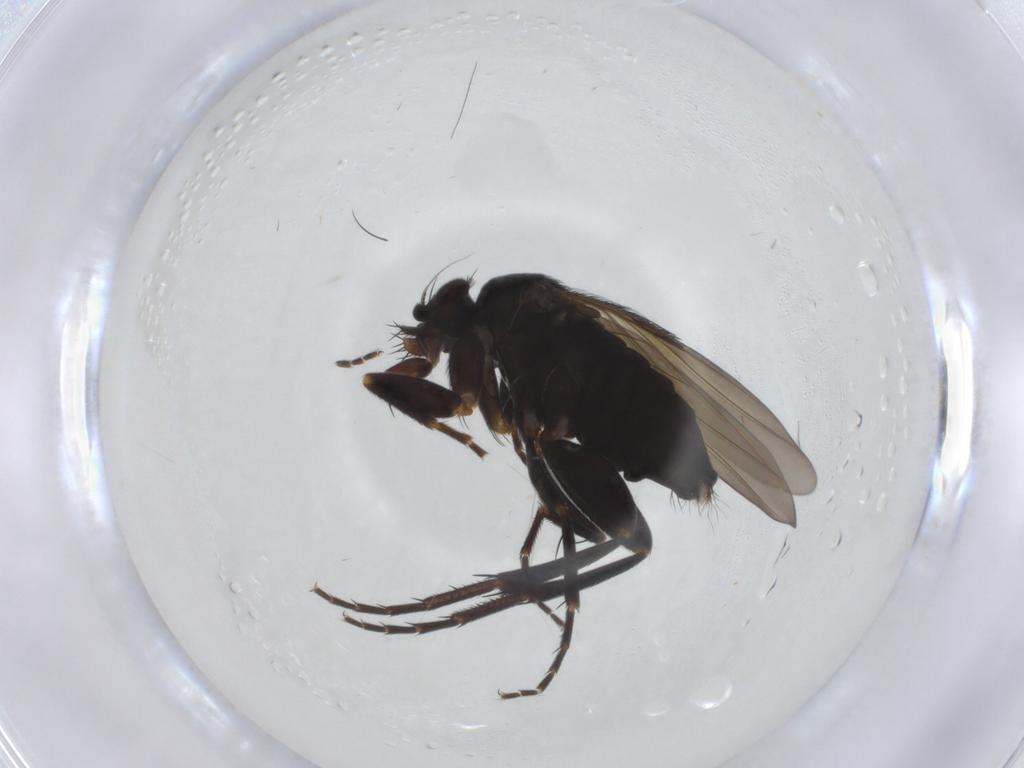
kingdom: Animalia
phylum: Arthropoda
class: Insecta
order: Diptera
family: Phoridae
